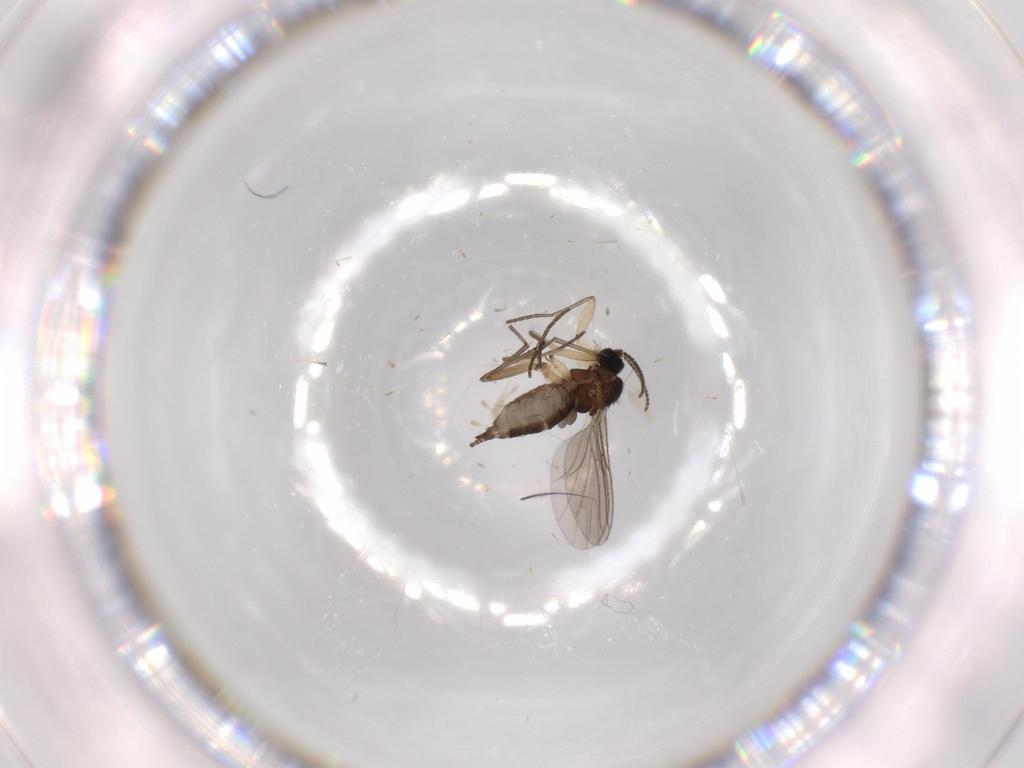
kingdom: Animalia
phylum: Arthropoda
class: Insecta
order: Diptera
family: Sciaridae
